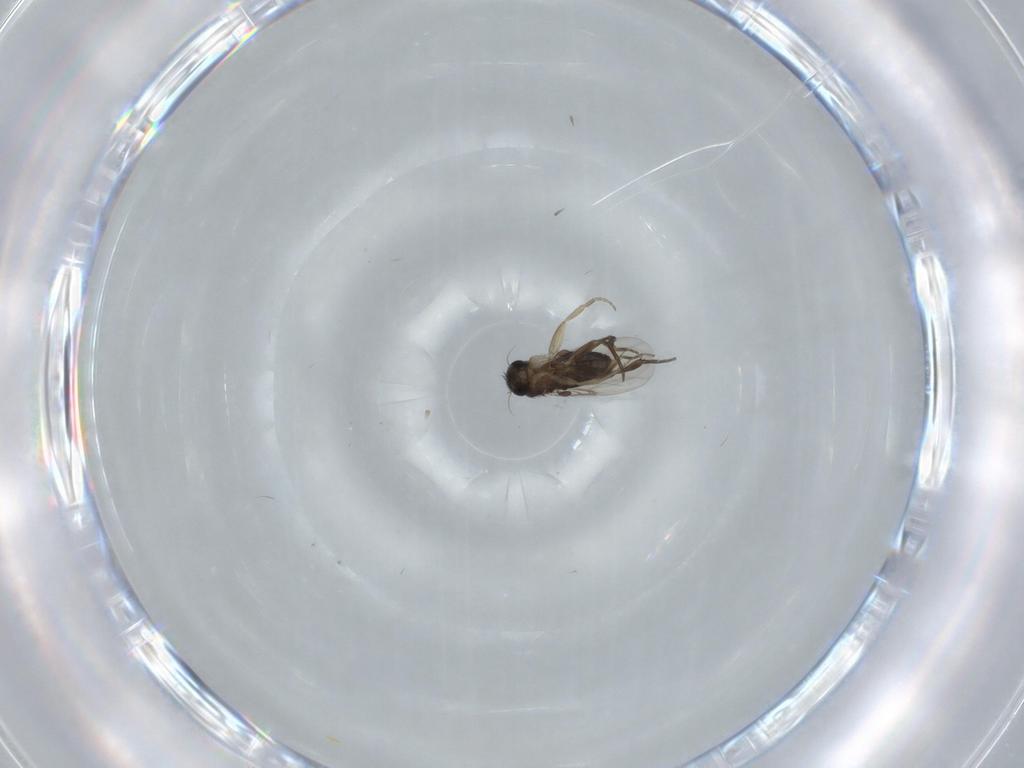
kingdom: Animalia
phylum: Arthropoda
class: Insecta
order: Diptera
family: Phoridae
